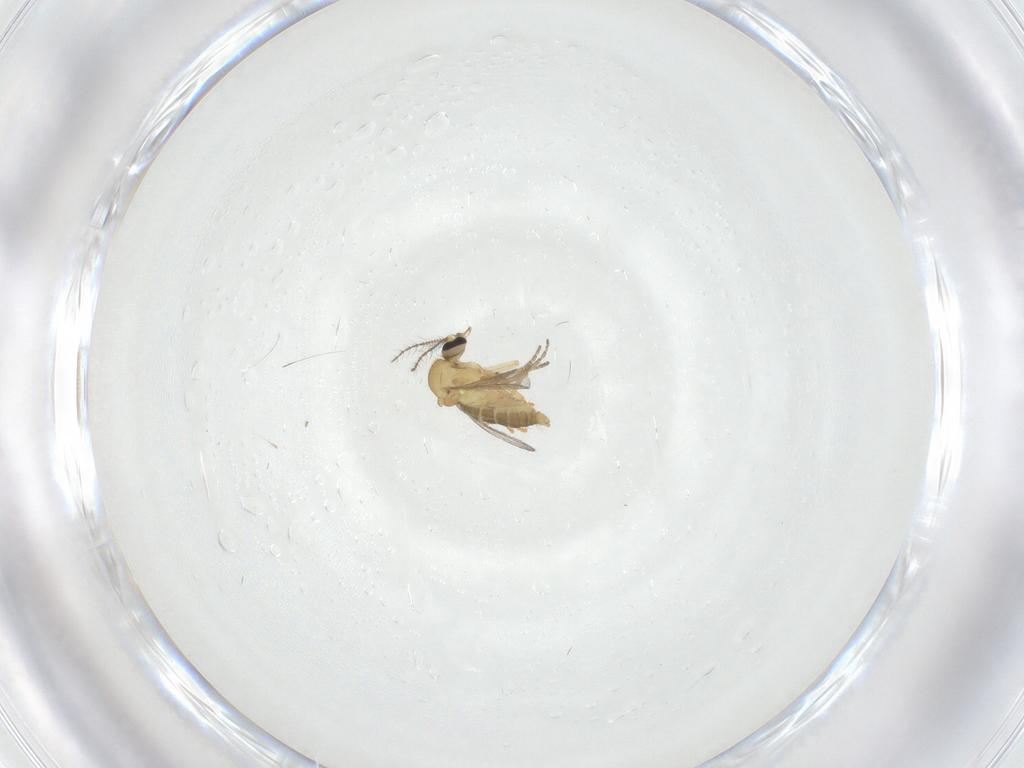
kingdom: Animalia
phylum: Arthropoda
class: Insecta
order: Diptera
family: Ceratopogonidae
